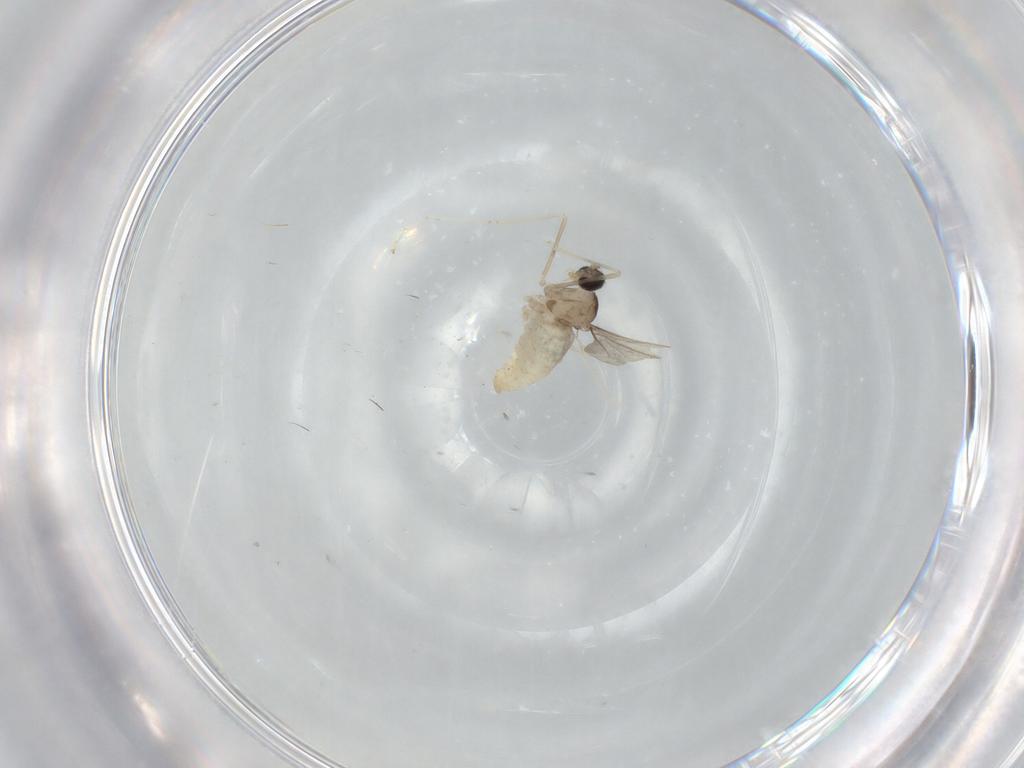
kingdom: Animalia
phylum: Arthropoda
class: Insecta
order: Diptera
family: Cecidomyiidae
